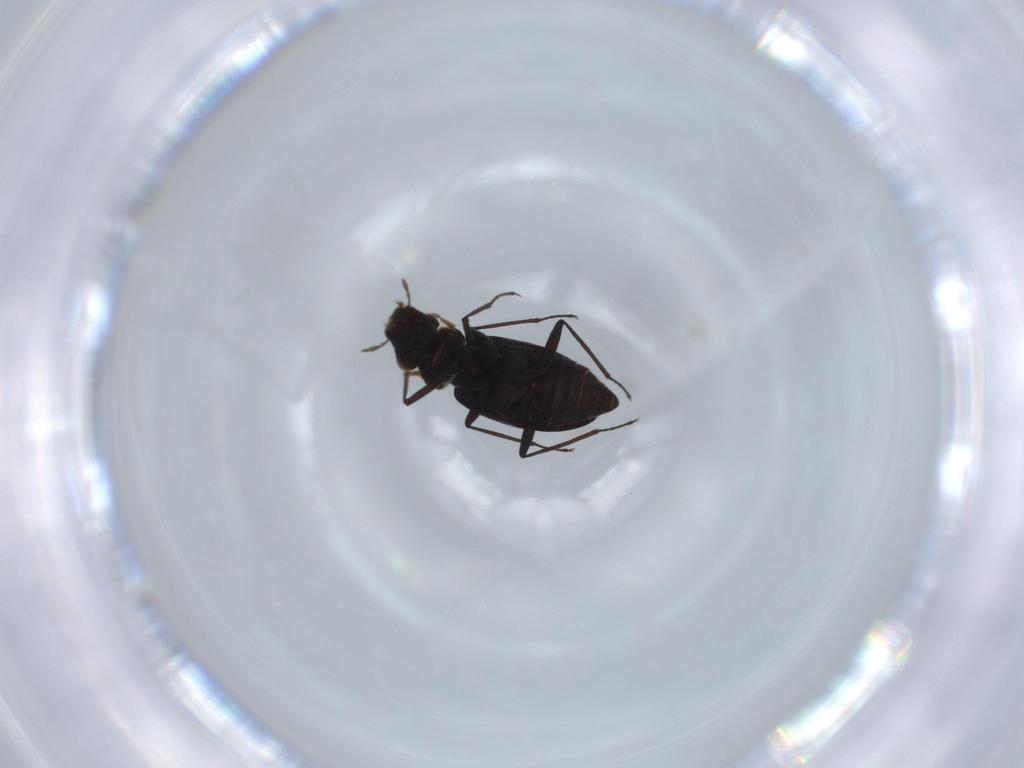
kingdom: Animalia
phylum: Arthropoda
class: Insecta
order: Coleoptera
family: Hydraenidae
